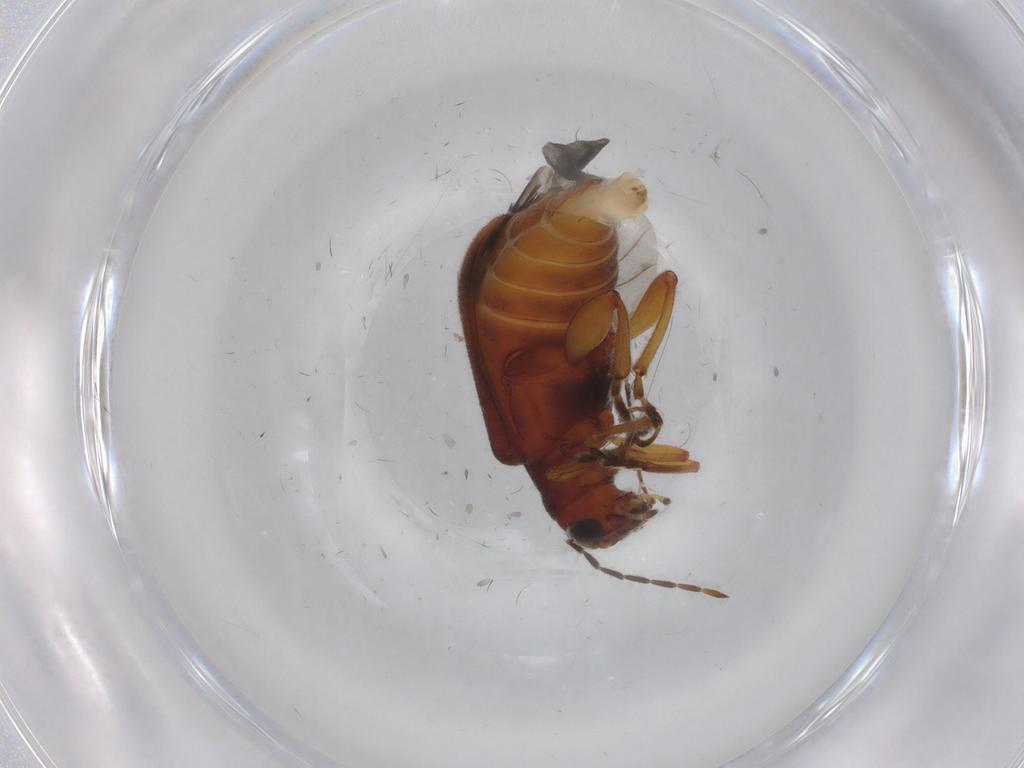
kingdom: Animalia
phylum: Arthropoda
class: Insecta
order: Coleoptera
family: Chrysomelidae
